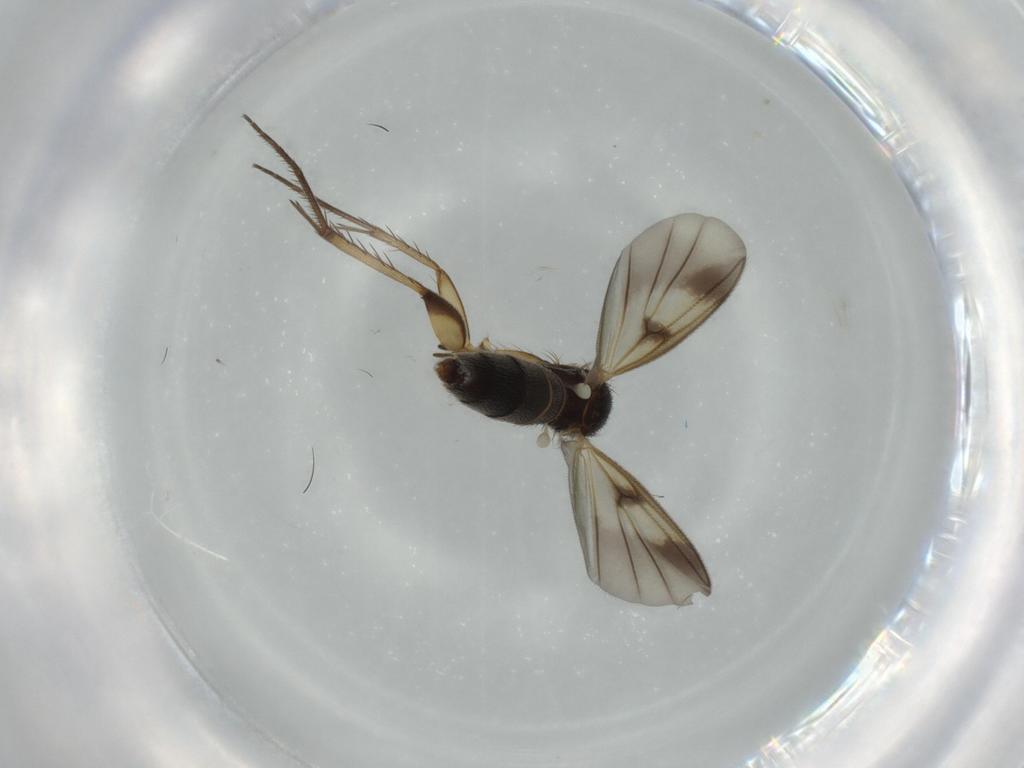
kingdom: Animalia
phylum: Arthropoda
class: Insecta
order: Diptera
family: Mycetophilidae
